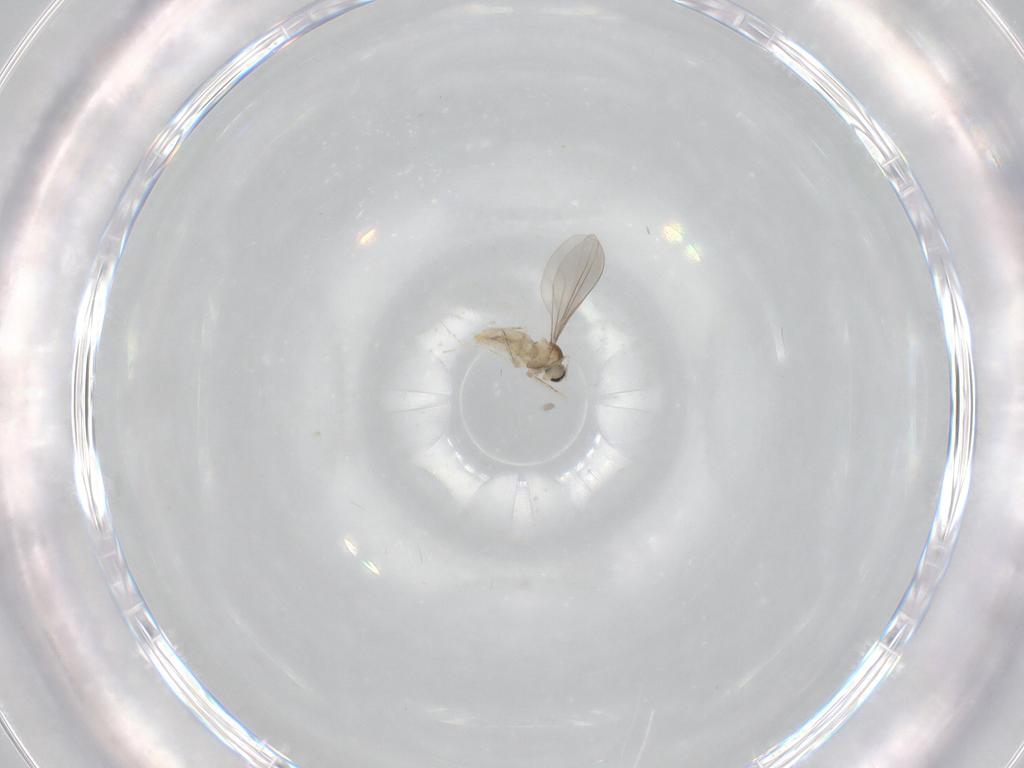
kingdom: Animalia
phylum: Arthropoda
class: Insecta
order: Diptera
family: Cecidomyiidae
